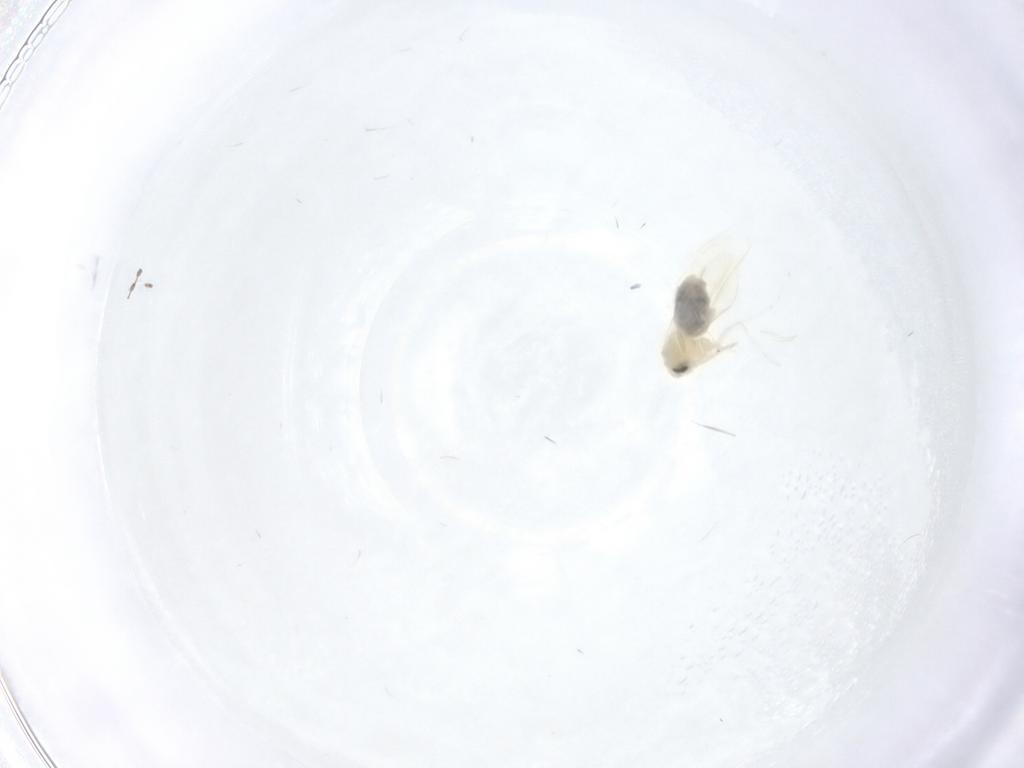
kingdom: Animalia
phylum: Arthropoda
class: Insecta
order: Hemiptera
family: Aleyrodidae
